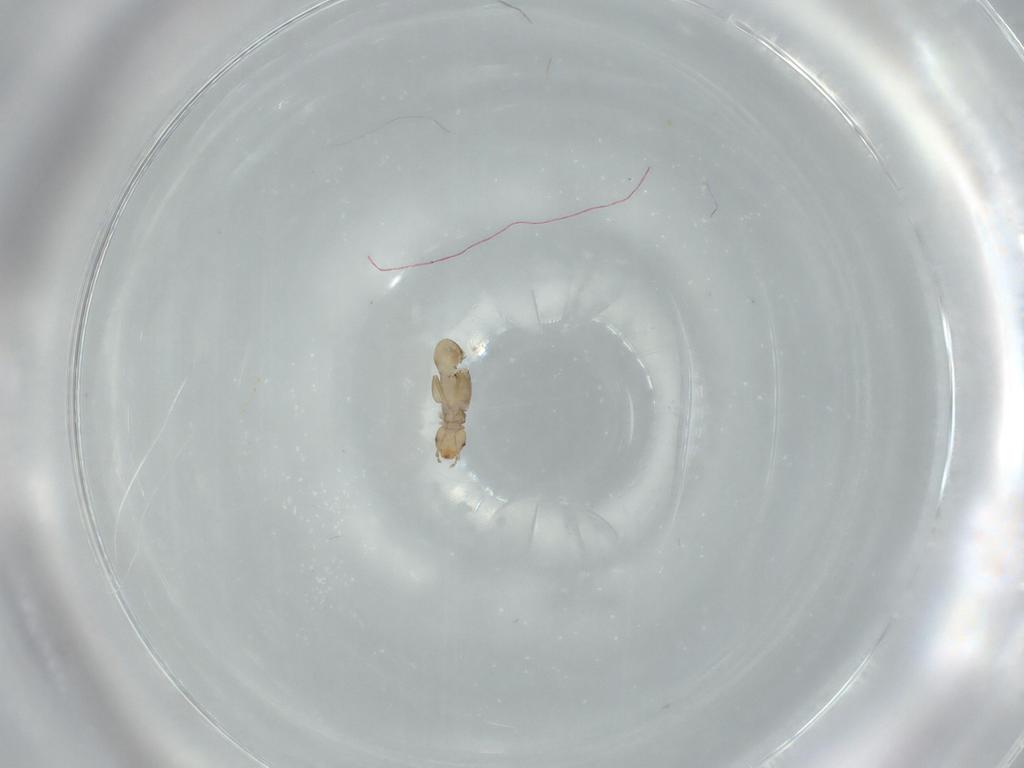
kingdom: Animalia
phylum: Arthropoda
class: Insecta
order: Psocodea
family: Liposcelididae
